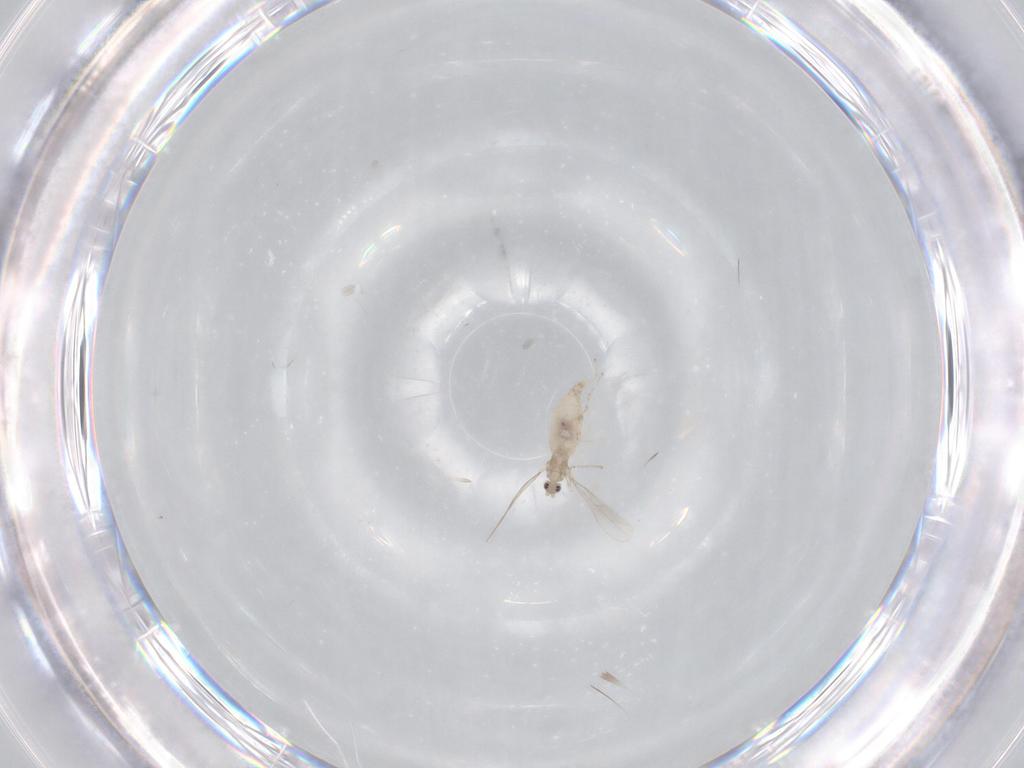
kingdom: Animalia
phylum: Arthropoda
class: Insecta
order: Diptera
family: Cecidomyiidae
